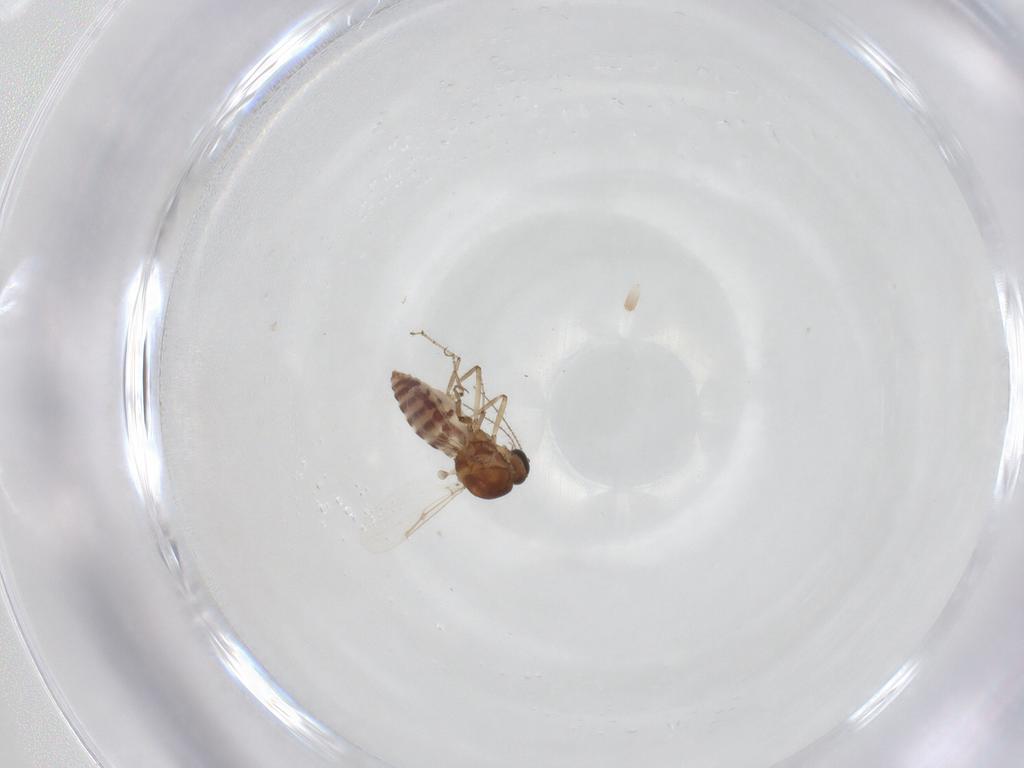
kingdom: Animalia
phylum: Arthropoda
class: Insecta
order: Diptera
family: Ceratopogonidae
